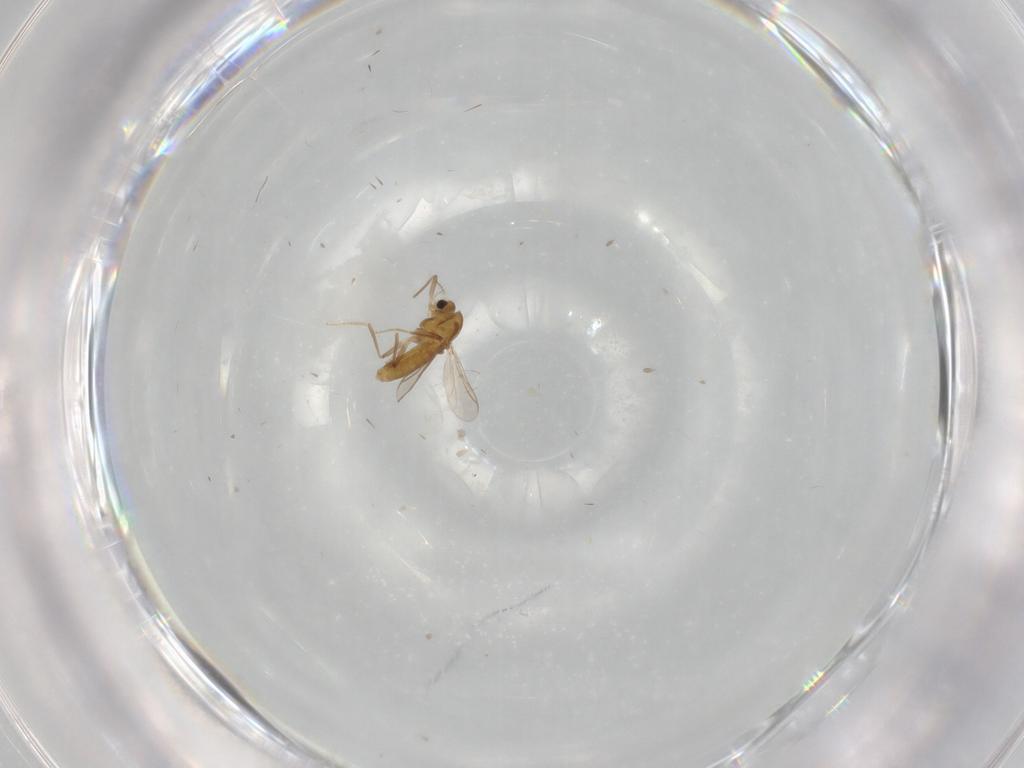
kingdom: Animalia
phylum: Arthropoda
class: Insecta
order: Diptera
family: Chironomidae
